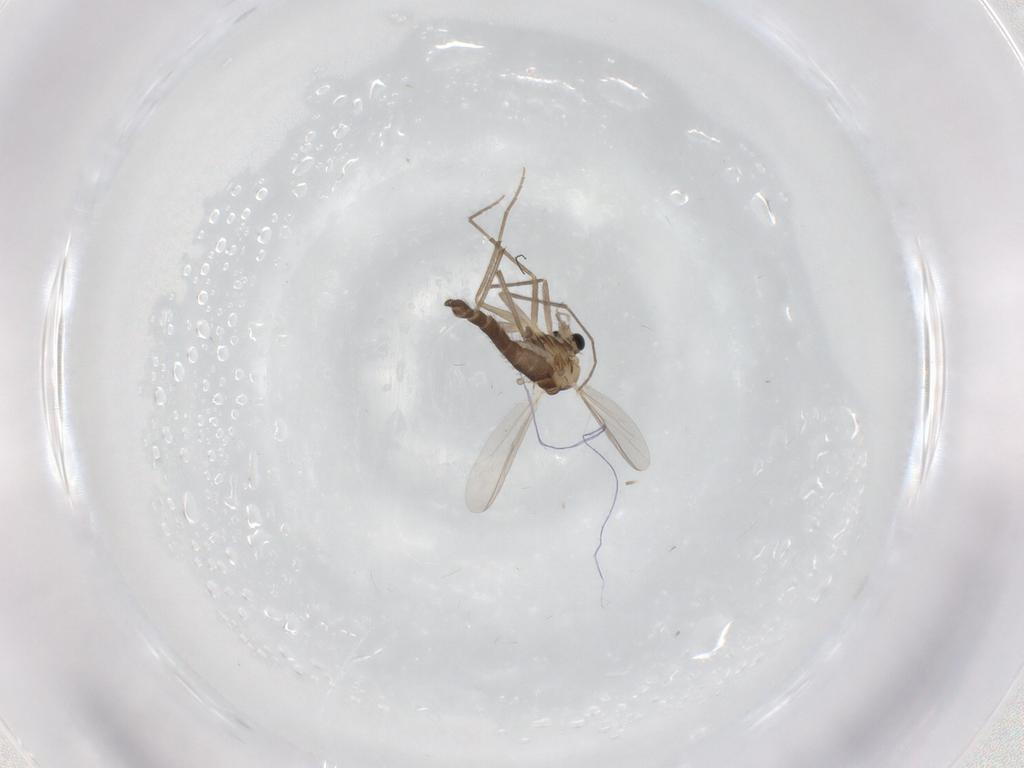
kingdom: Animalia
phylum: Arthropoda
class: Insecta
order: Diptera
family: Chironomidae
